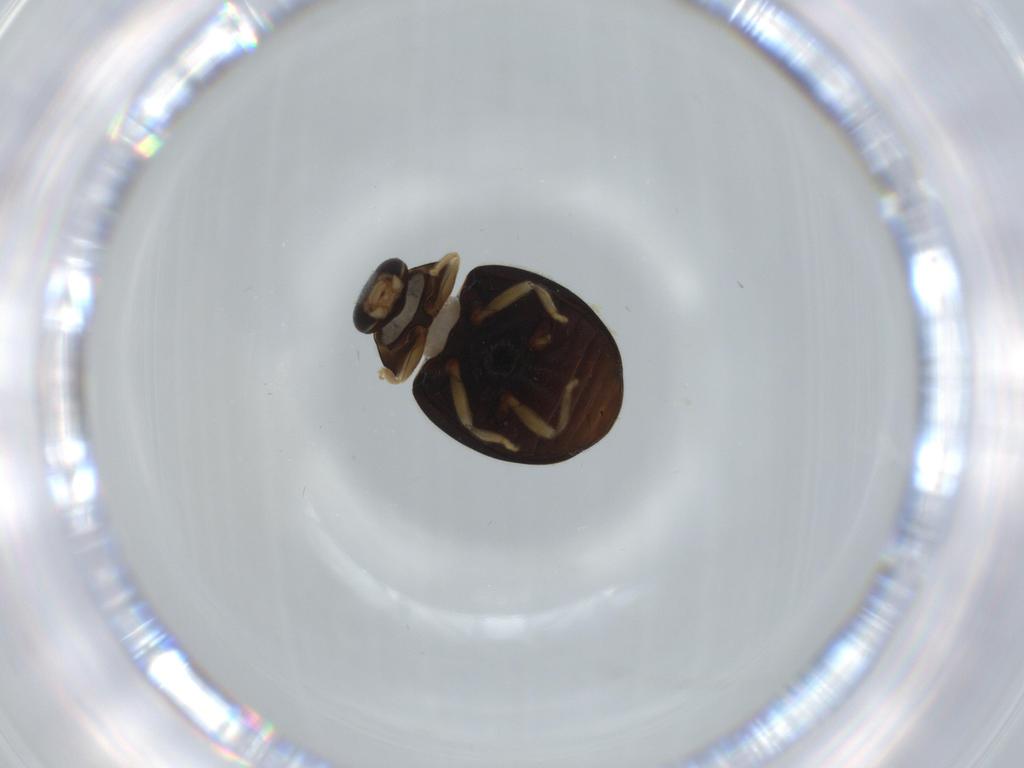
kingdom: Animalia
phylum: Arthropoda
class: Insecta
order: Coleoptera
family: Coccinellidae
